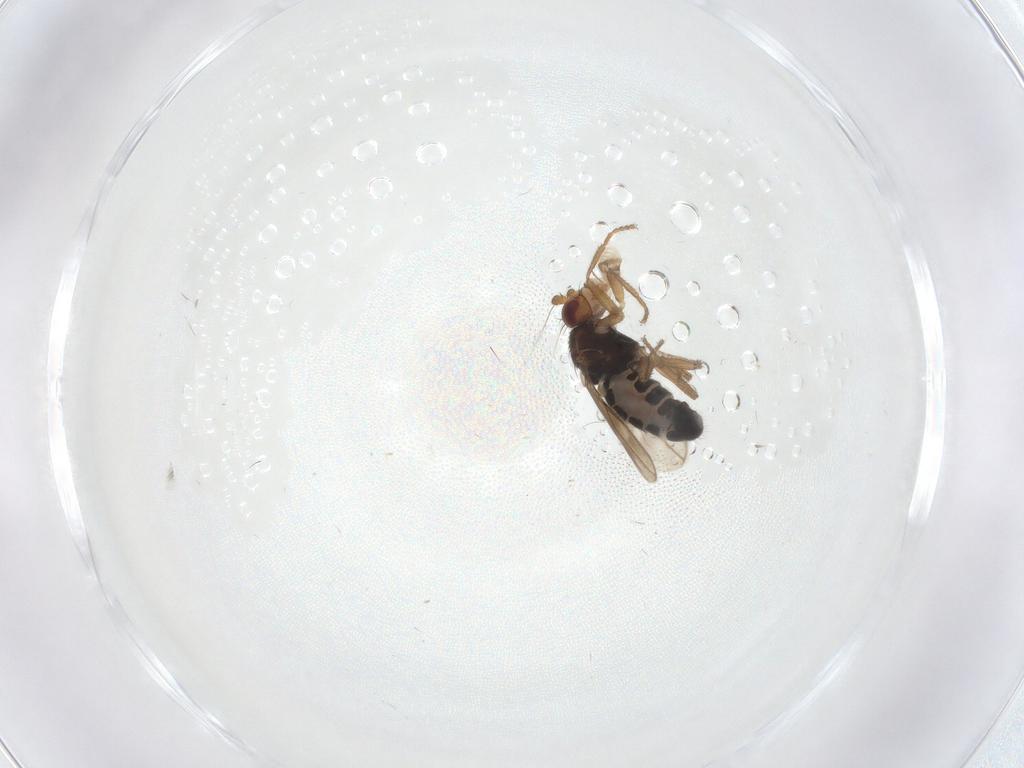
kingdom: Animalia
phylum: Arthropoda
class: Insecta
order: Diptera
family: Sphaeroceridae
